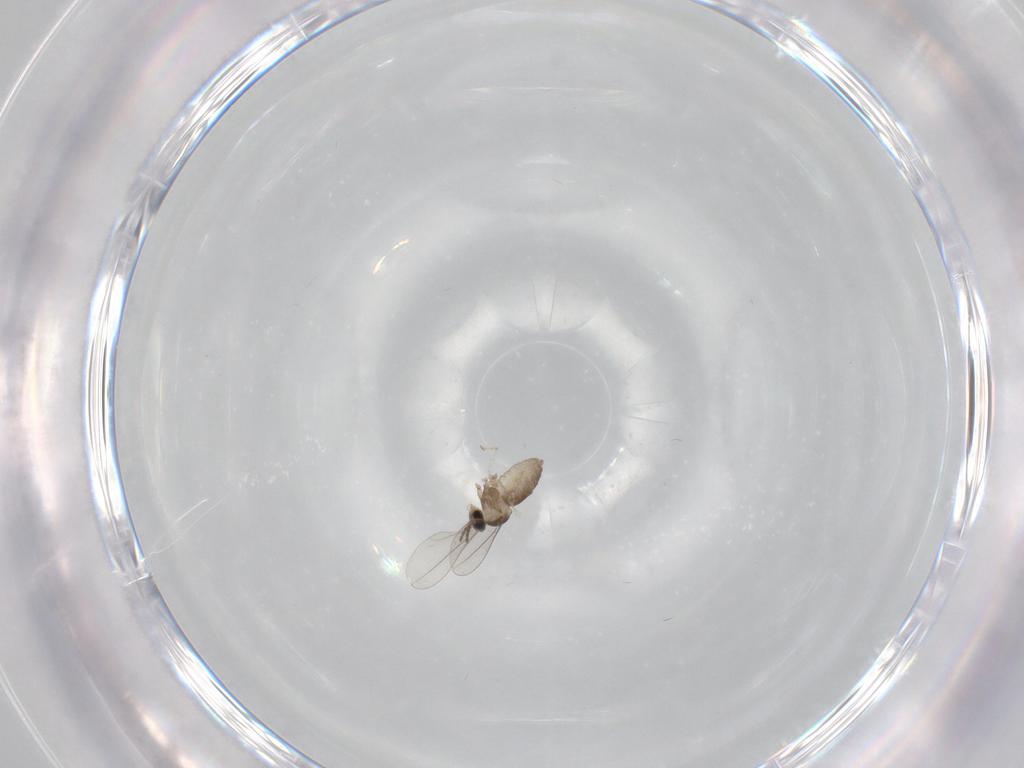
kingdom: Animalia
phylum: Arthropoda
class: Insecta
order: Diptera
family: Cecidomyiidae
